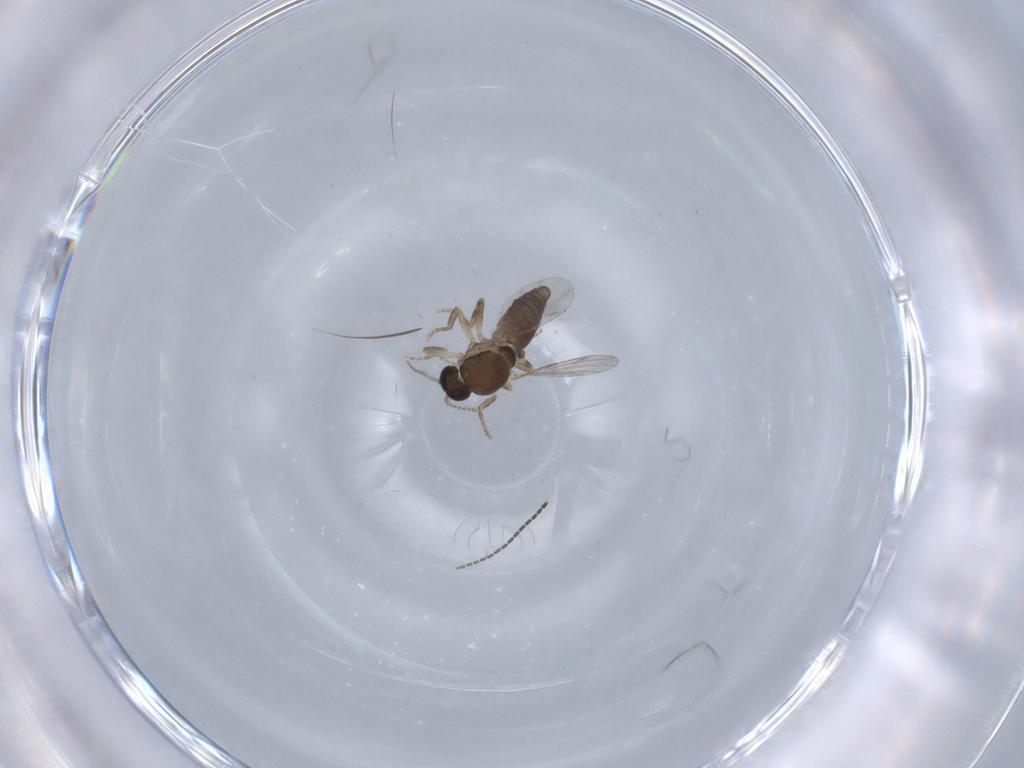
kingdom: Animalia
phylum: Arthropoda
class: Insecta
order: Diptera
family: Sciaridae
